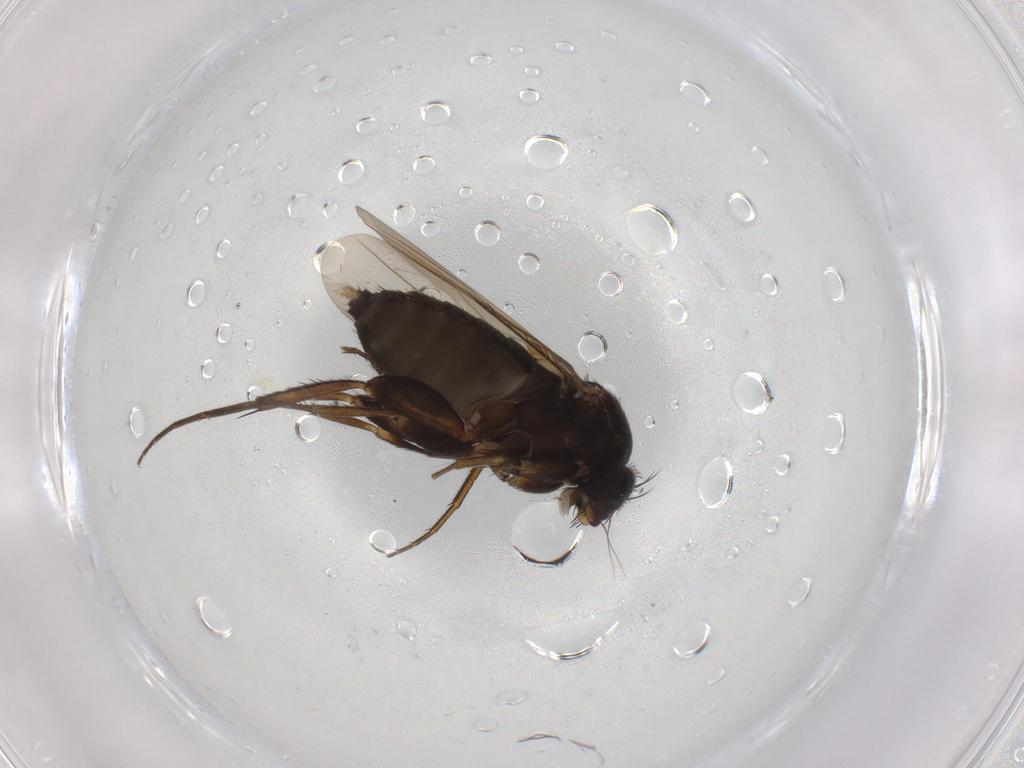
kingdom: Animalia
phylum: Arthropoda
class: Insecta
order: Diptera
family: Phoridae
